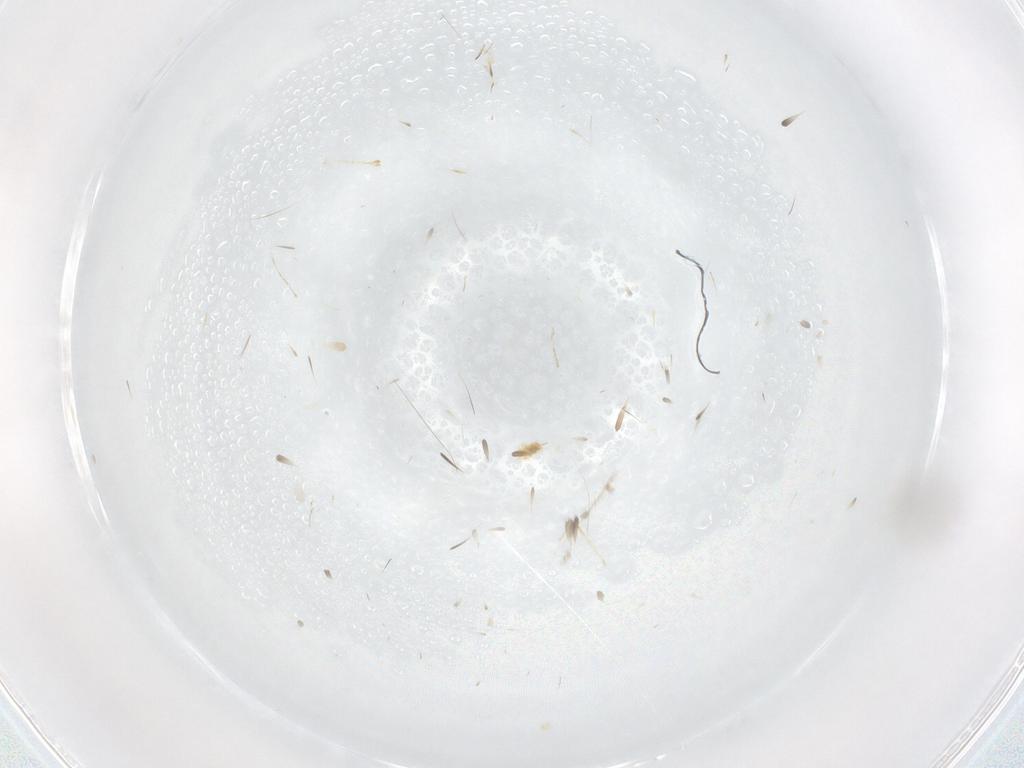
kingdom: Animalia
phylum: Arthropoda
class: Insecta
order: Diptera
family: Cecidomyiidae
